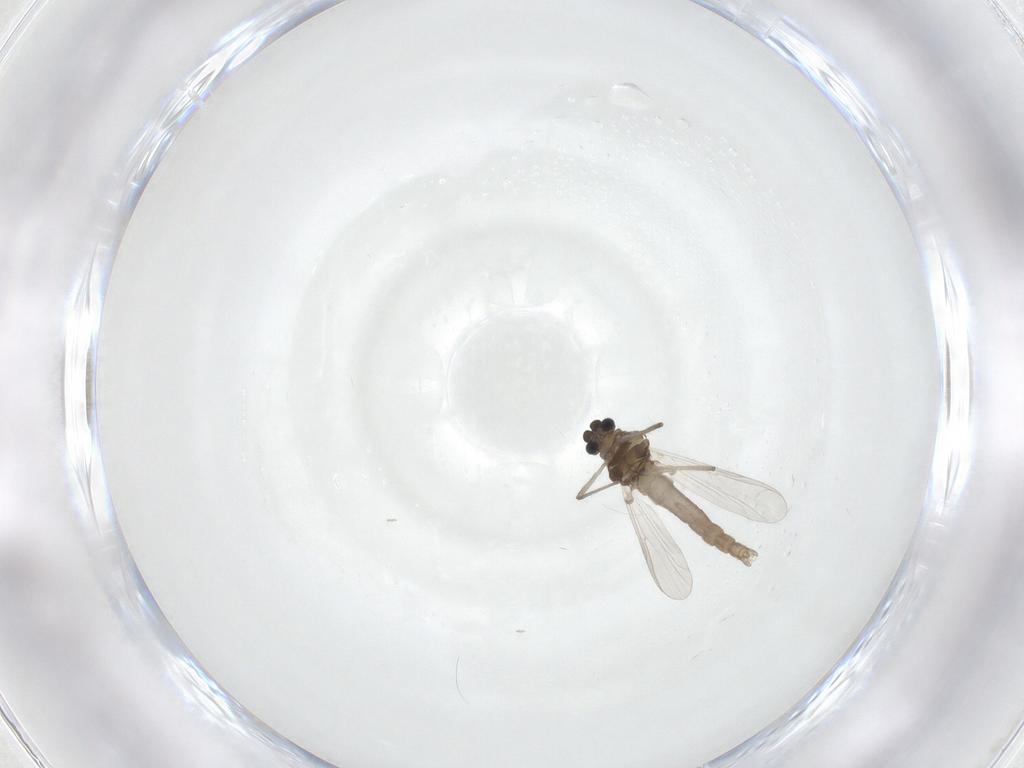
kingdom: Animalia
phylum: Arthropoda
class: Insecta
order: Diptera
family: Chironomidae
